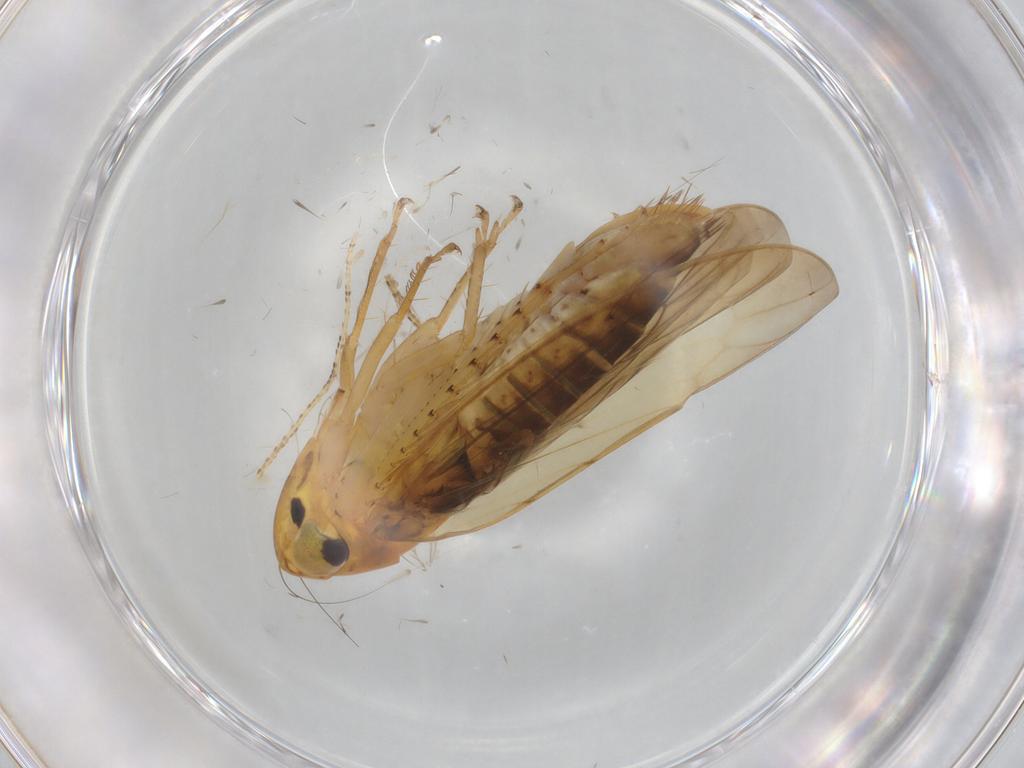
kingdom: Animalia
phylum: Arthropoda
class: Insecta
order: Hemiptera
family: Cicadellidae
